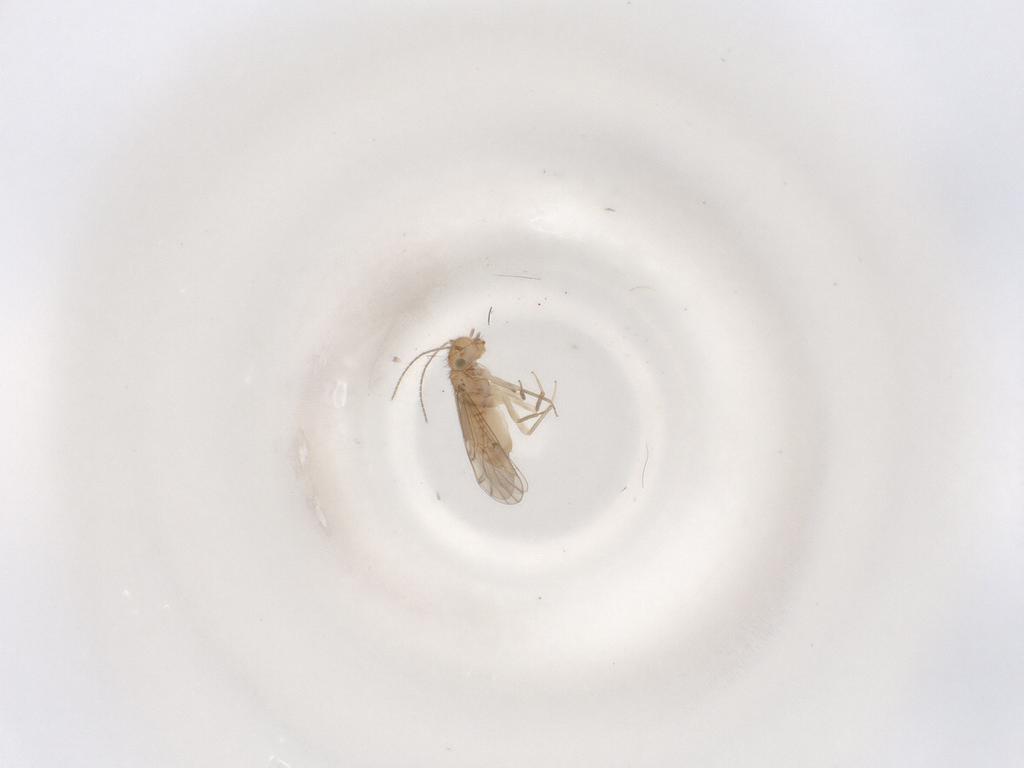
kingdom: Animalia
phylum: Arthropoda
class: Insecta
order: Psocodea
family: Ectopsocidae
